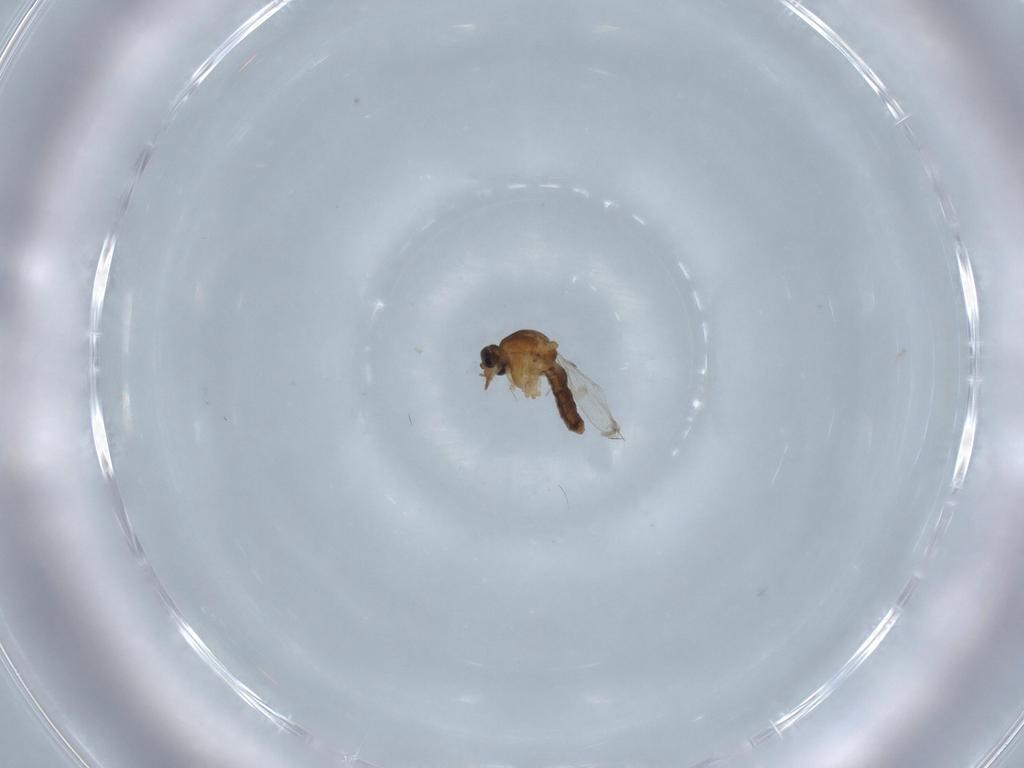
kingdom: Animalia
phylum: Arthropoda
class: Insecta
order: Diptera
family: Ceratopogonidae
